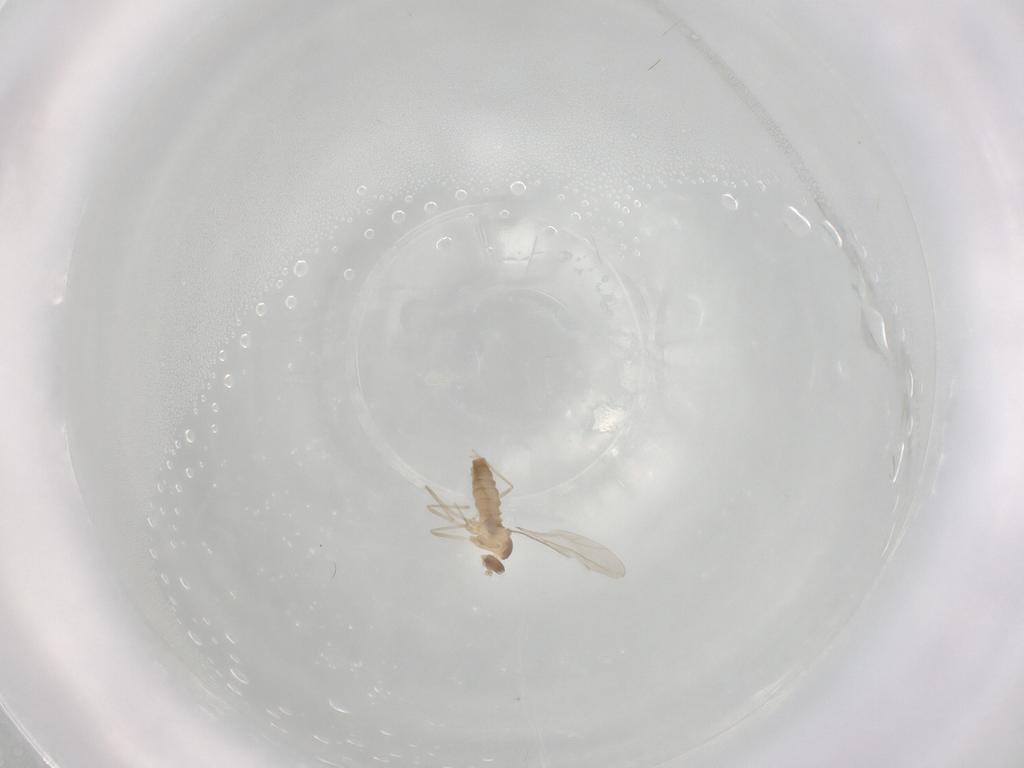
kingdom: Animalia
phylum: Arthropoda
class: Insecta
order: Diptera
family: Cecidomyiidae
